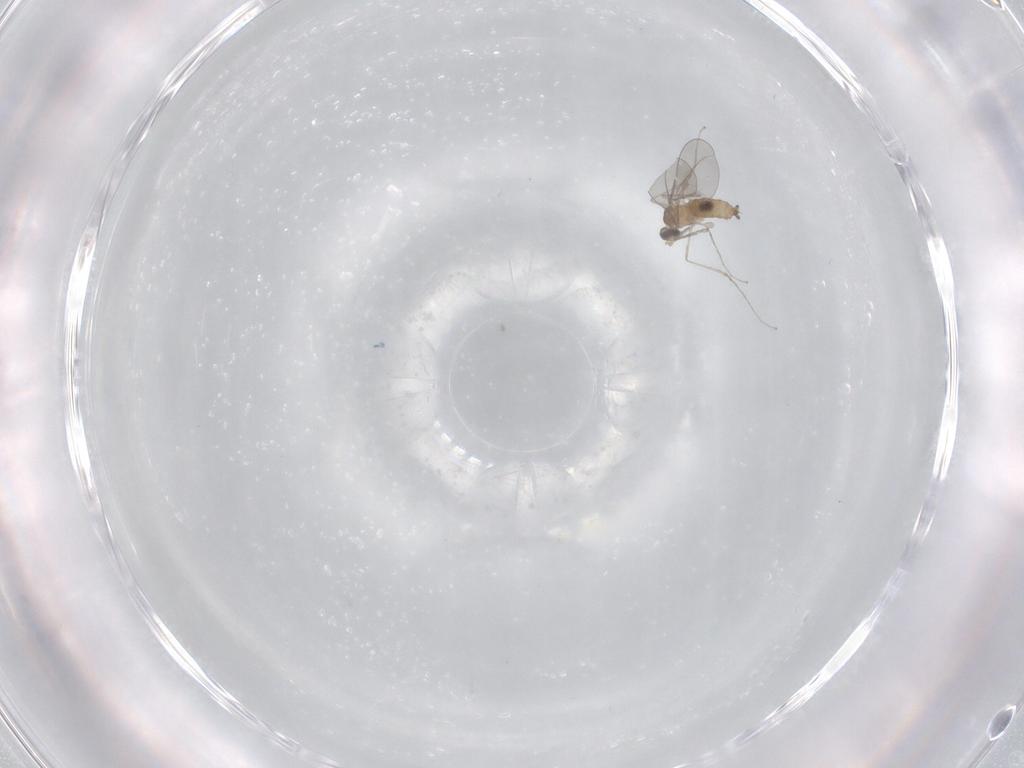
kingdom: Animalia
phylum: Arthropoda
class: Insecta
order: Diptera
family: Cecidomyiidae
